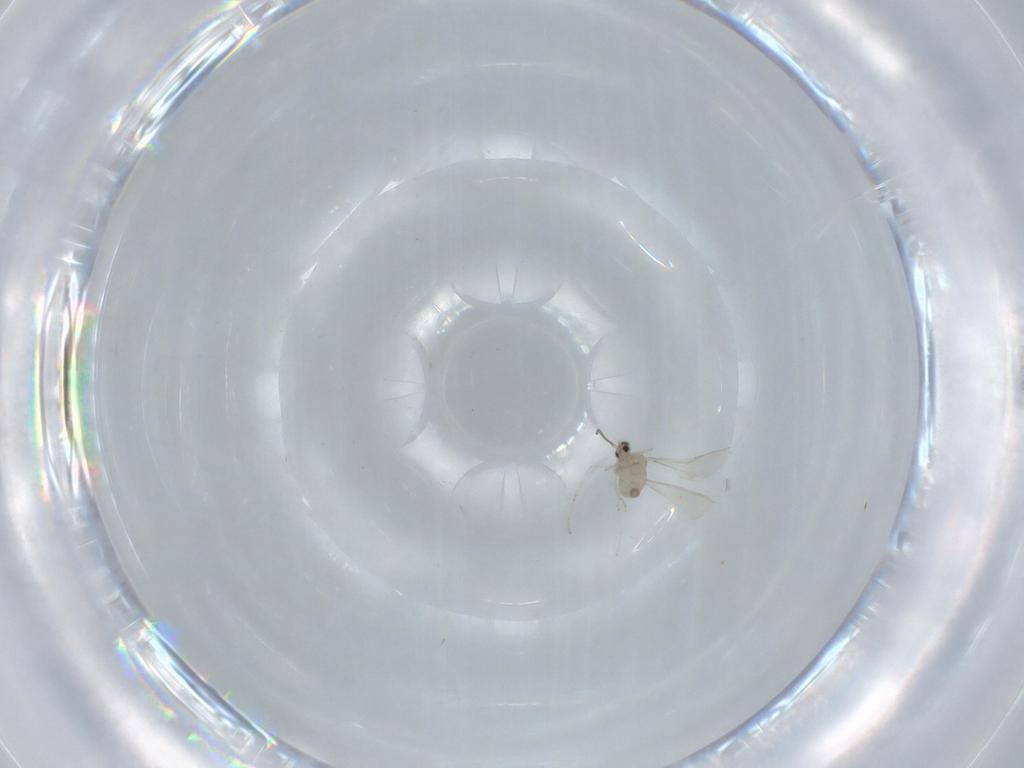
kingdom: Animalia
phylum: Arthropoda
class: Insecta
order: Diptera
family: Cecidomyiidae
